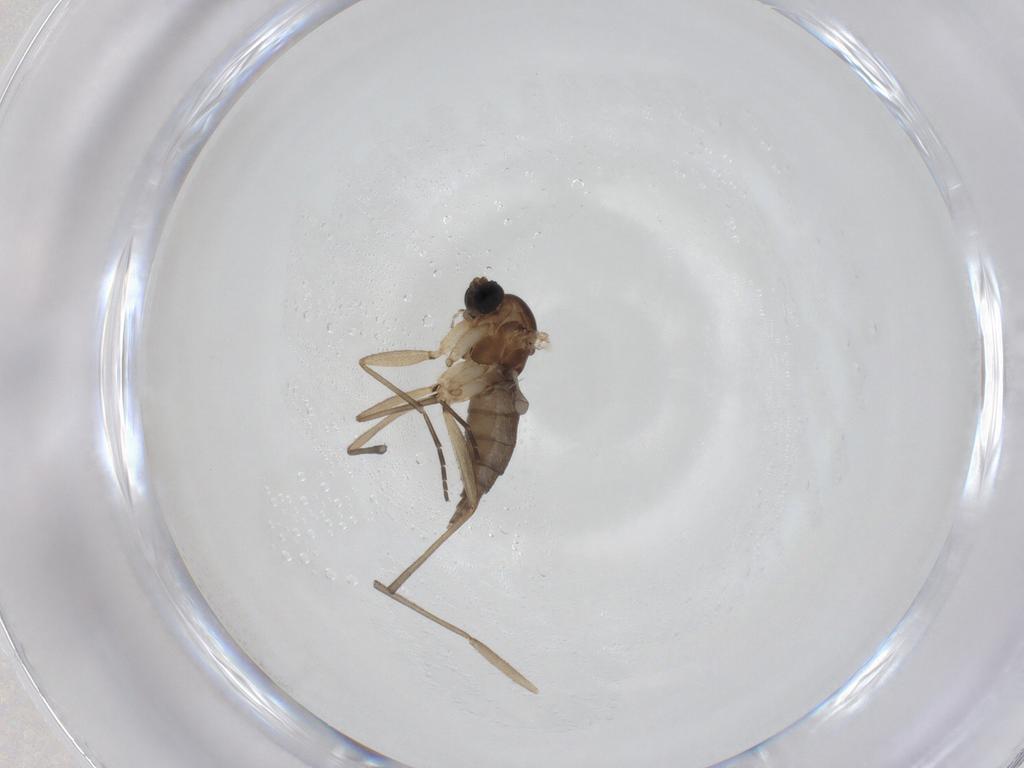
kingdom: Animalia
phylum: Arthropoda
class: Insecta
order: Diptera
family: Sciaridae
